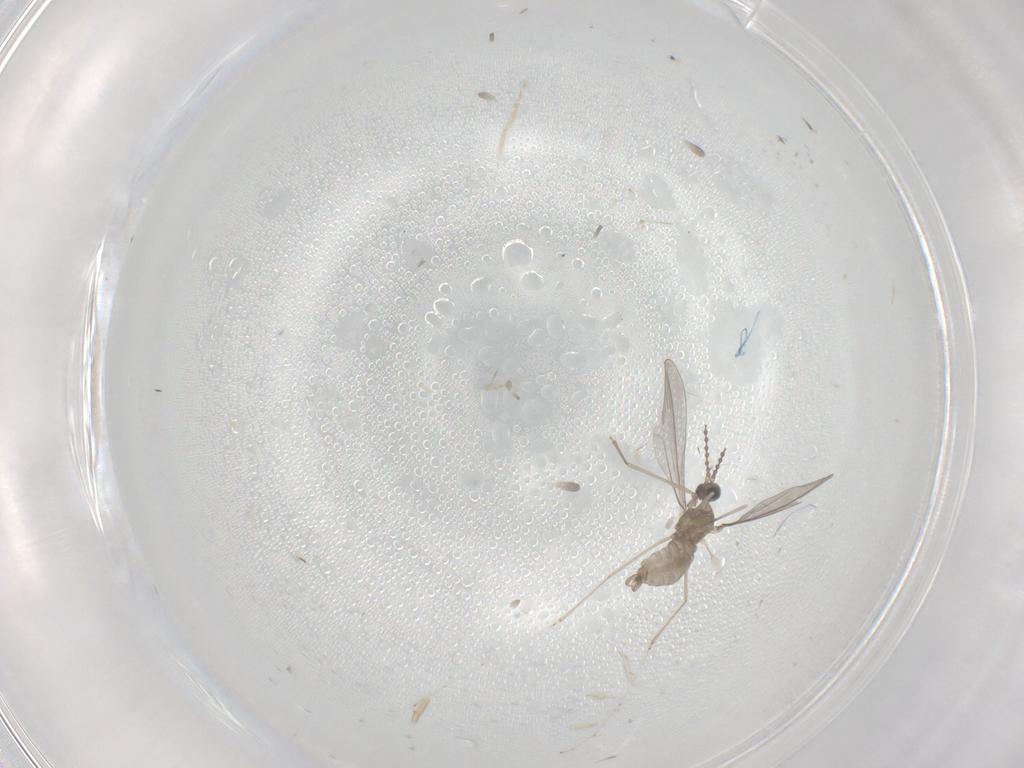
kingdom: Animalia
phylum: Arthropoda
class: Insecta
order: Diptera
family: Cecidomyiidae
